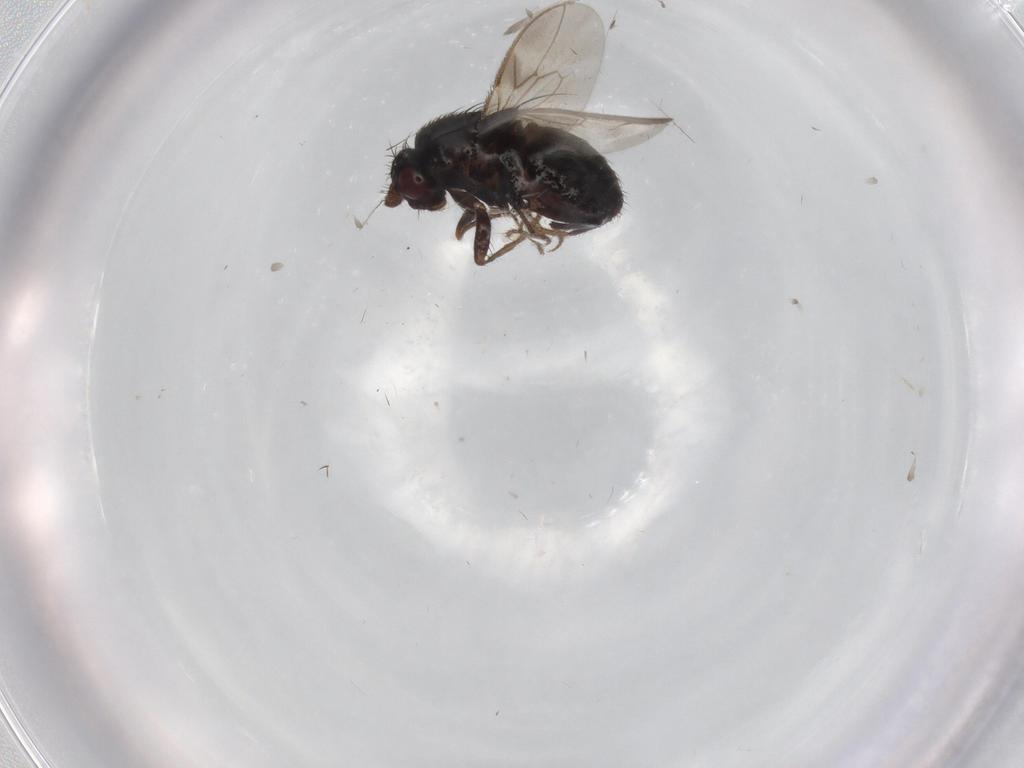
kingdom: Animalia
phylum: Arthropoda
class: Insecta
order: Diptera
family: Sphaeroceridae
